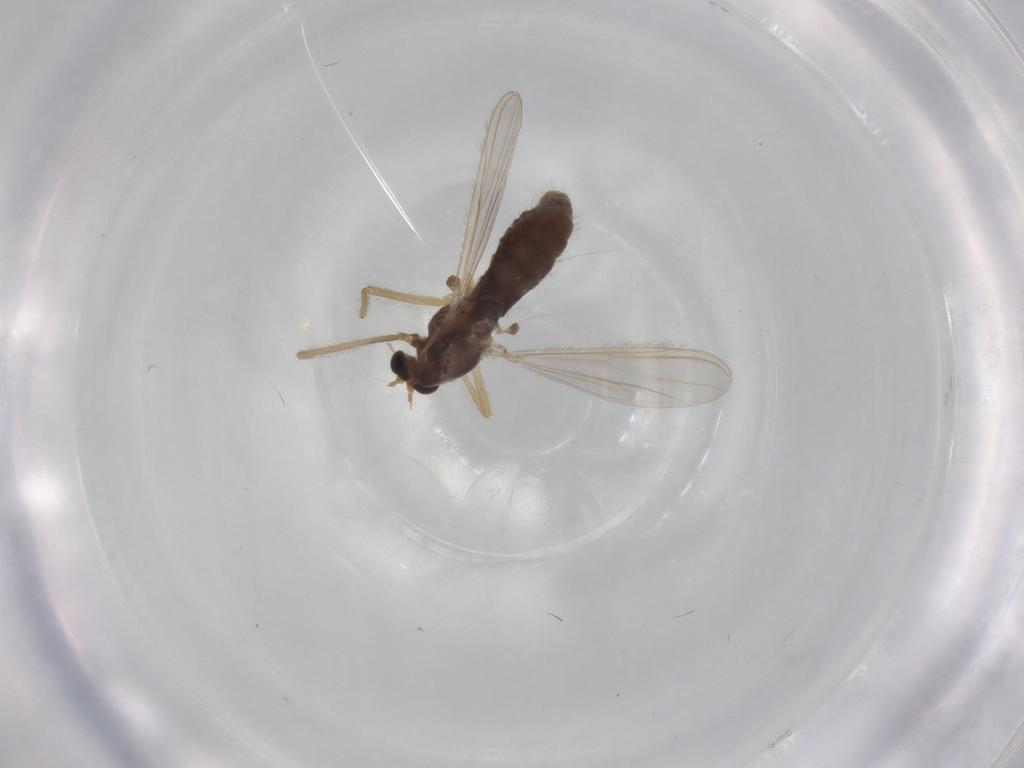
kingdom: Animalia
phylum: Arthropoda
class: Insecta
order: Diptera
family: Chironomidae
